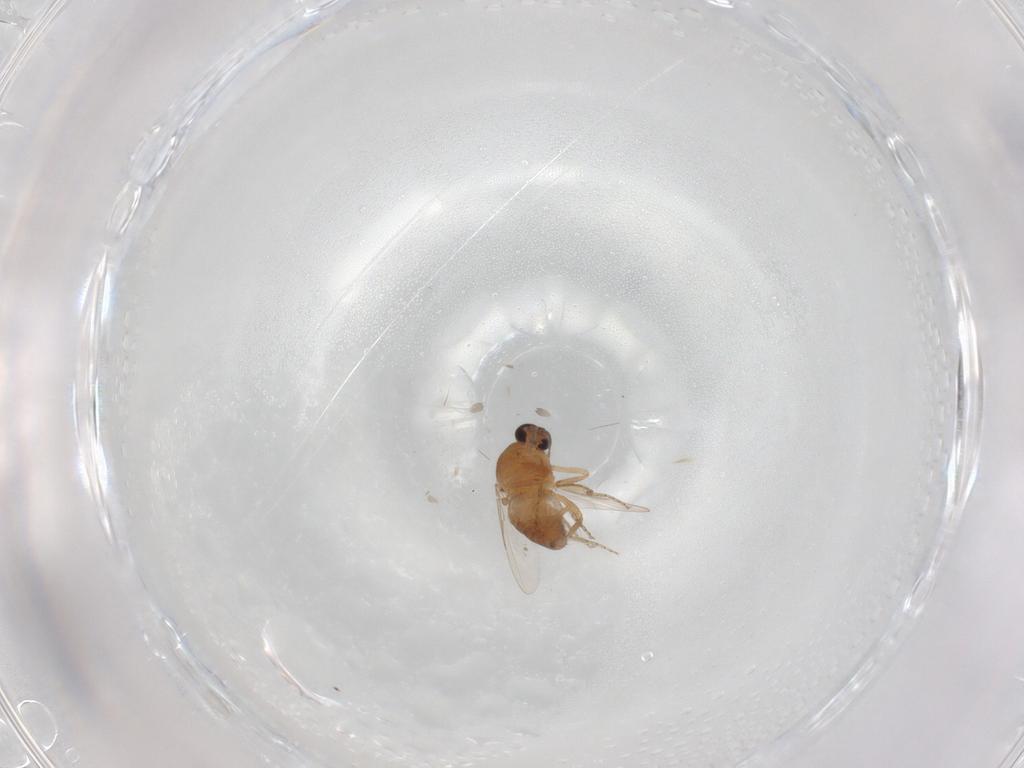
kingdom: Animalia
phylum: Arthropoda
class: Insecta
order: Diptera
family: Ceratopogonidae
